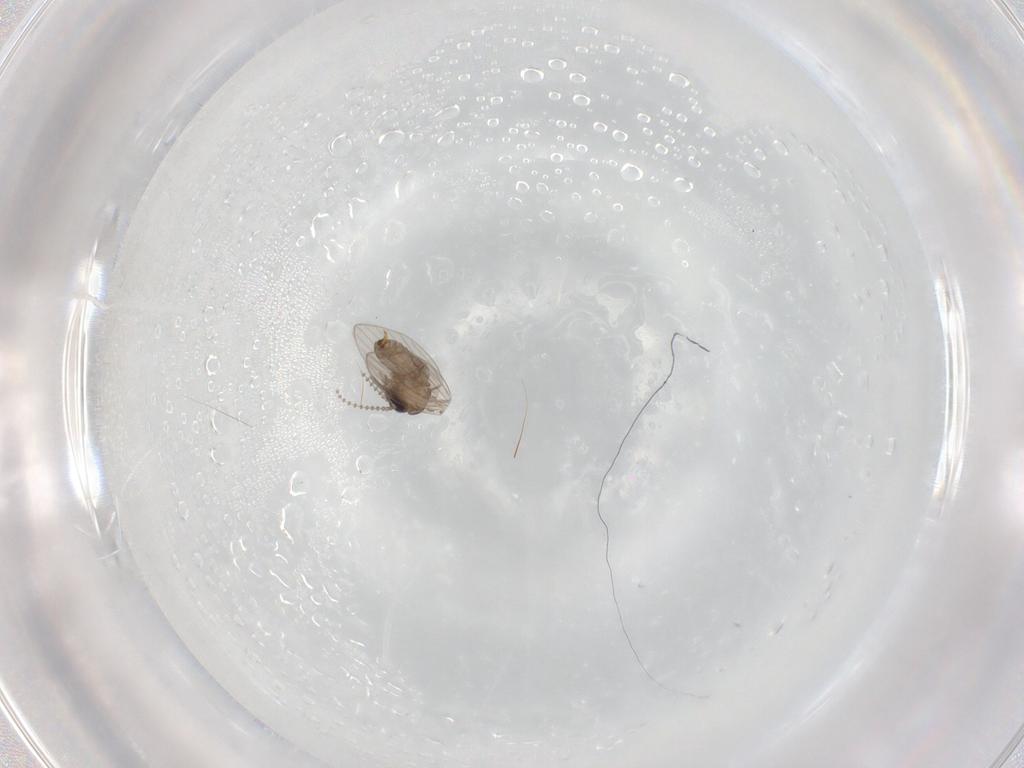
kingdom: Animalia
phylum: Arthropoda
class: Insecta
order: Diptera
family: Psychodidae
